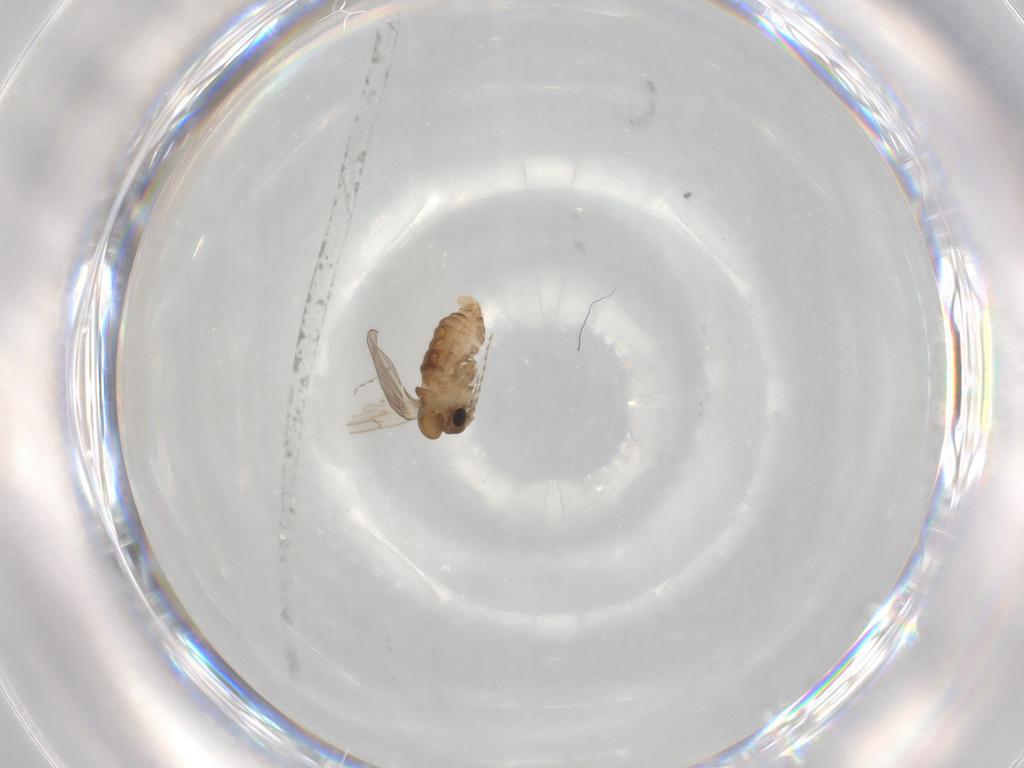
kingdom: Animalia
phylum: Arthropoda
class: Insecta
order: Diptera
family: Psychodidae
